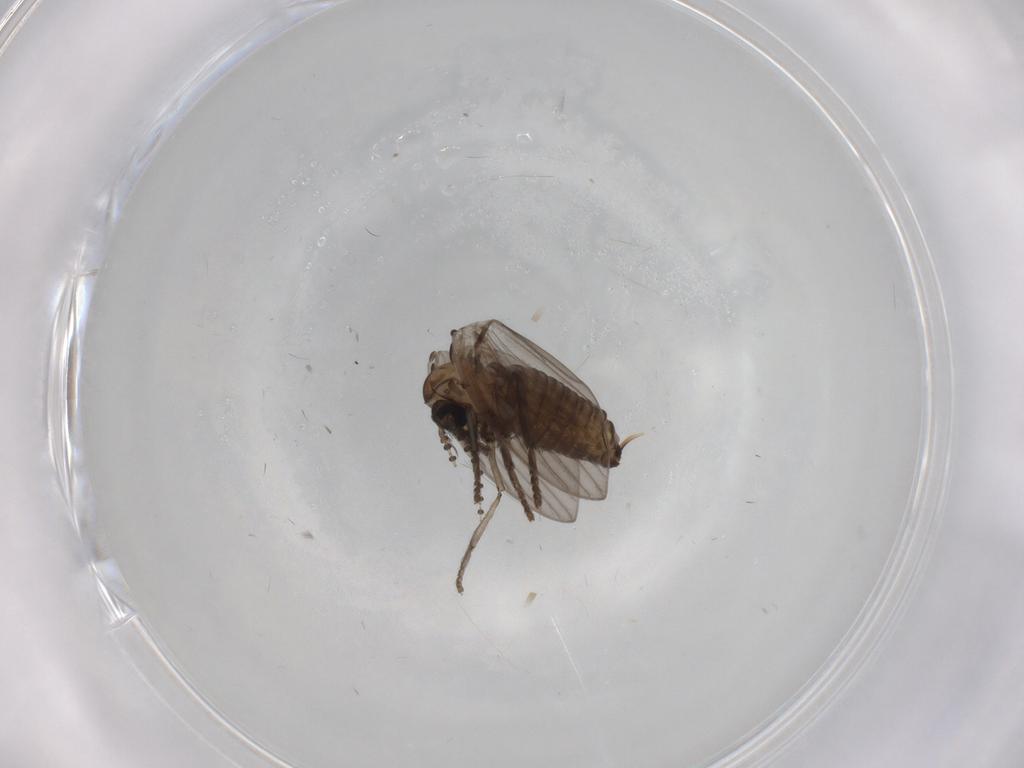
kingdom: Animalia
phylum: Arthropoda
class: Insecta
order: Diptera
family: Psychodidae
